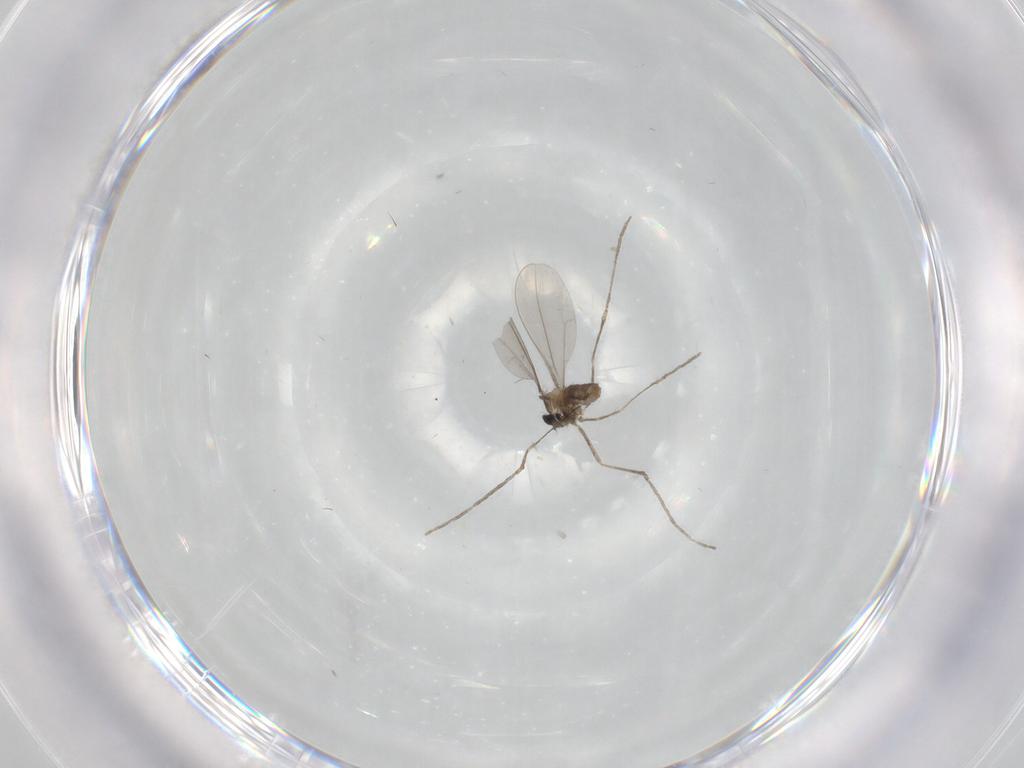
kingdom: Animalia
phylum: Arthropoda
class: Insecta
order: Diptera
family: Cecidomyiidae
